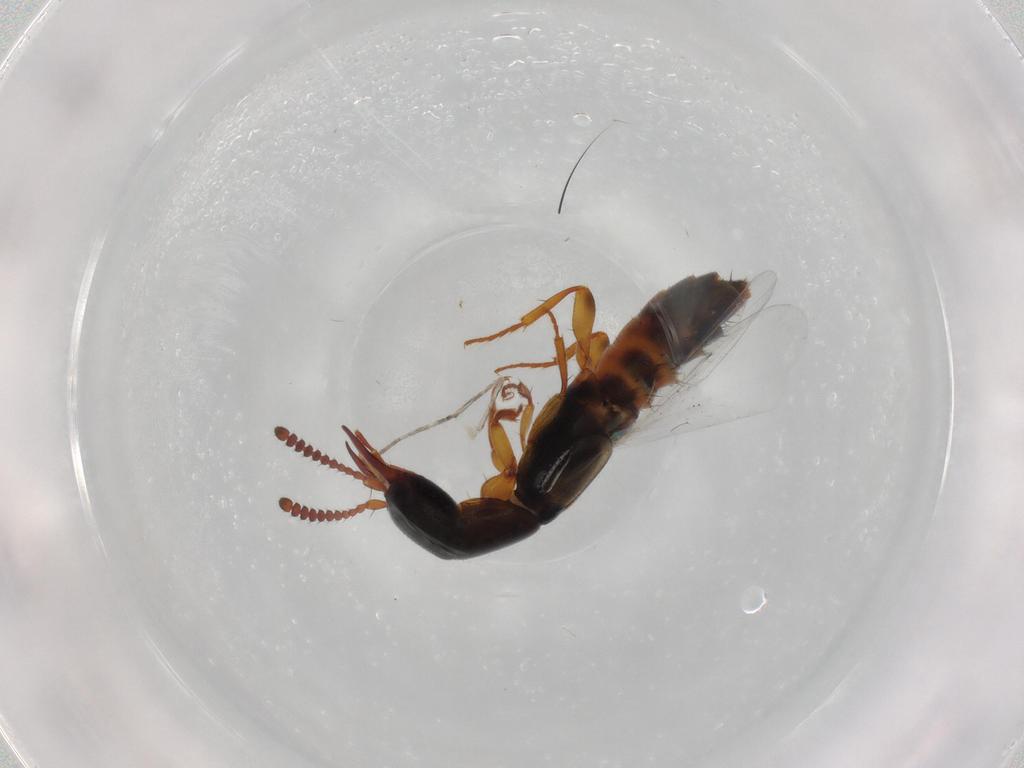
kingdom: Animalia
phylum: Arthropoda
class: Insecta
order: Coleoptera
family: Staphylinidae
